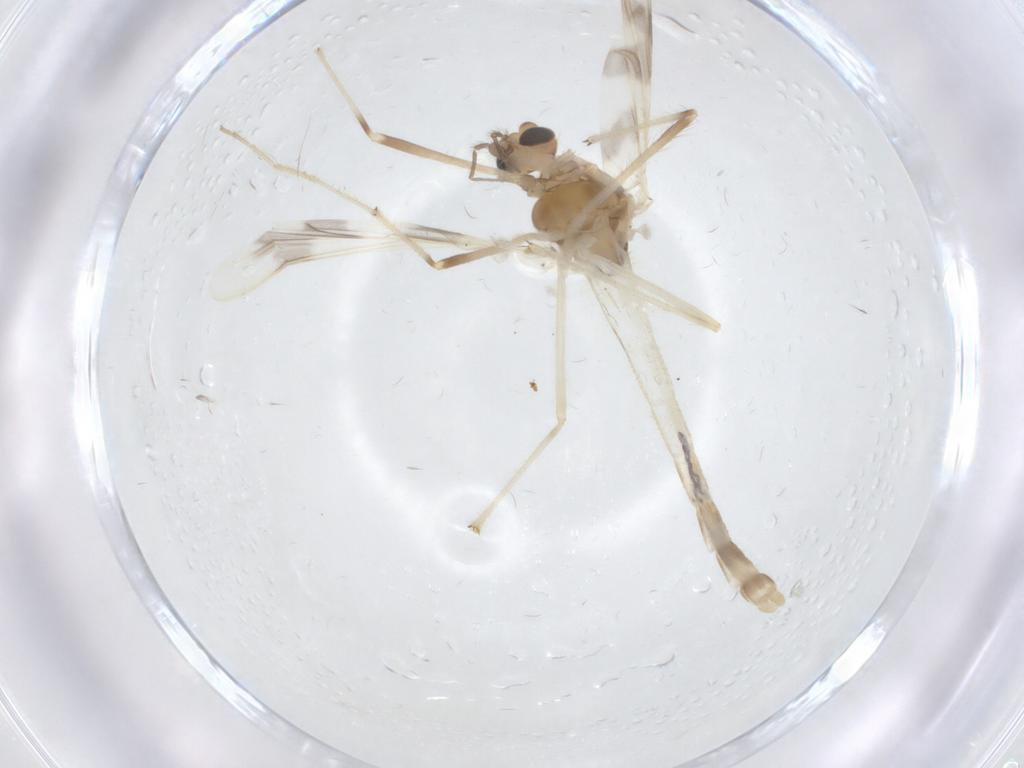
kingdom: Animalia
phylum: Arthropoda
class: Insecta
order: Diptera
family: Chironomidae
